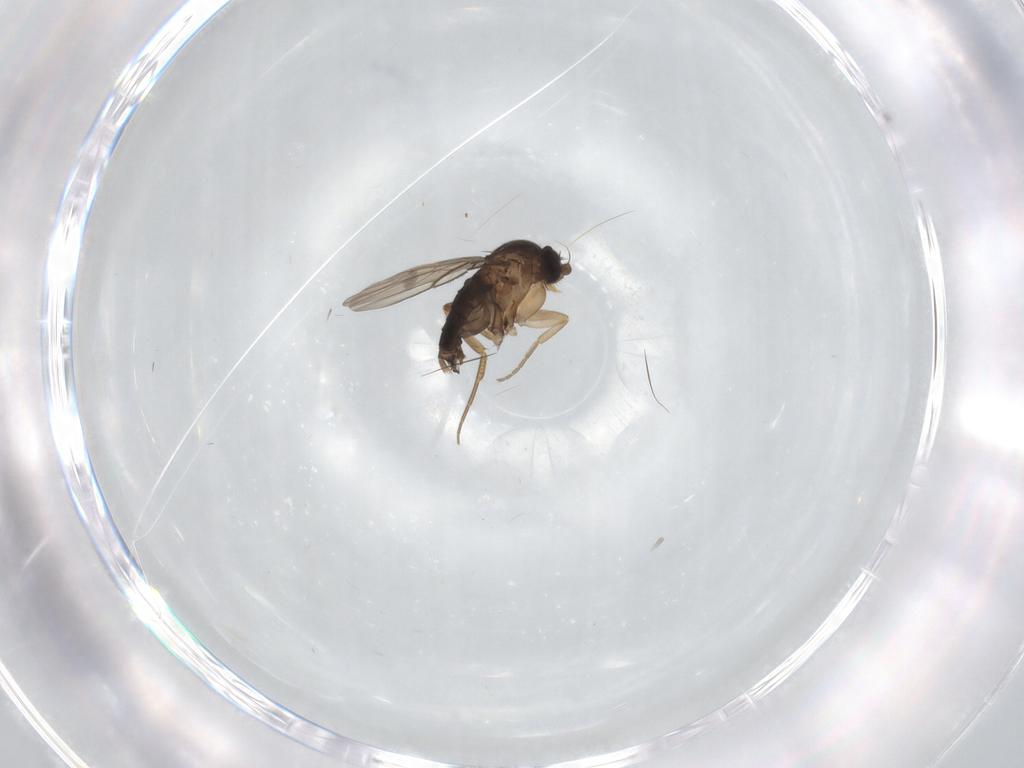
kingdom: Animalia
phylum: Arthropoda
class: Insecta
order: Diptera
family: Phoridae
